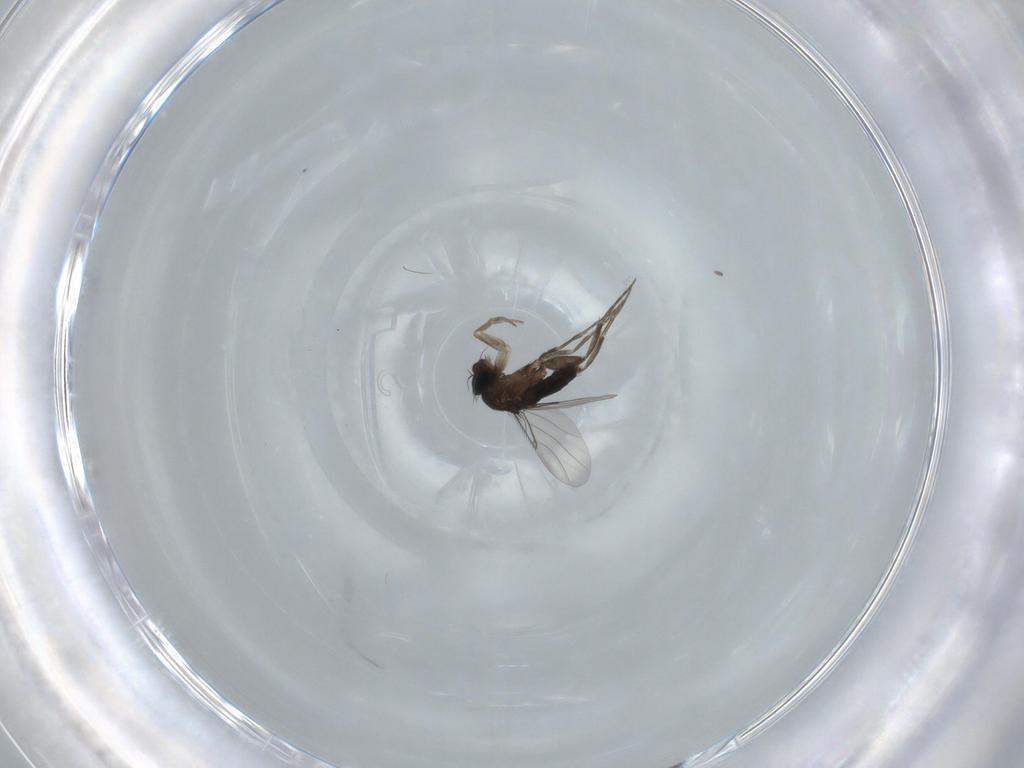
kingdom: Animalia
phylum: Arthropoda
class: Insecta
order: Diptera
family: Phoridae
